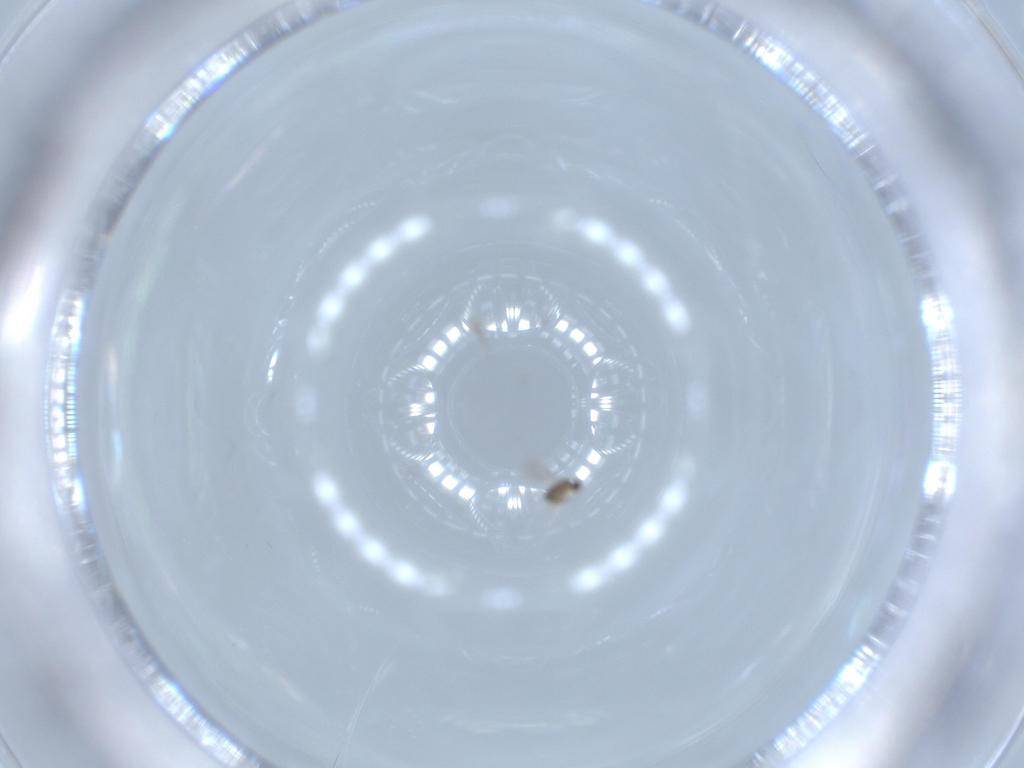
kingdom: Animalia
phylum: Arthropoda
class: Insecta
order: Hymenoptera
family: Mymaridae
